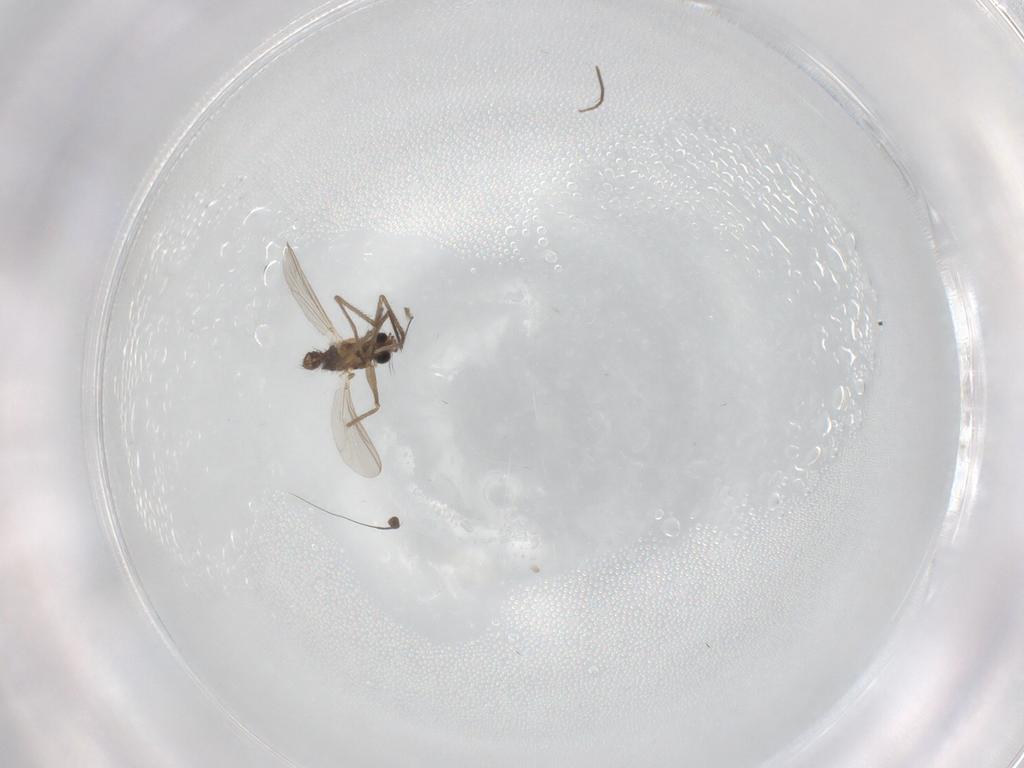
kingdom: Animalia
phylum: Arthropoda
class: Insecta
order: Diptera
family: Dolichopodidae
